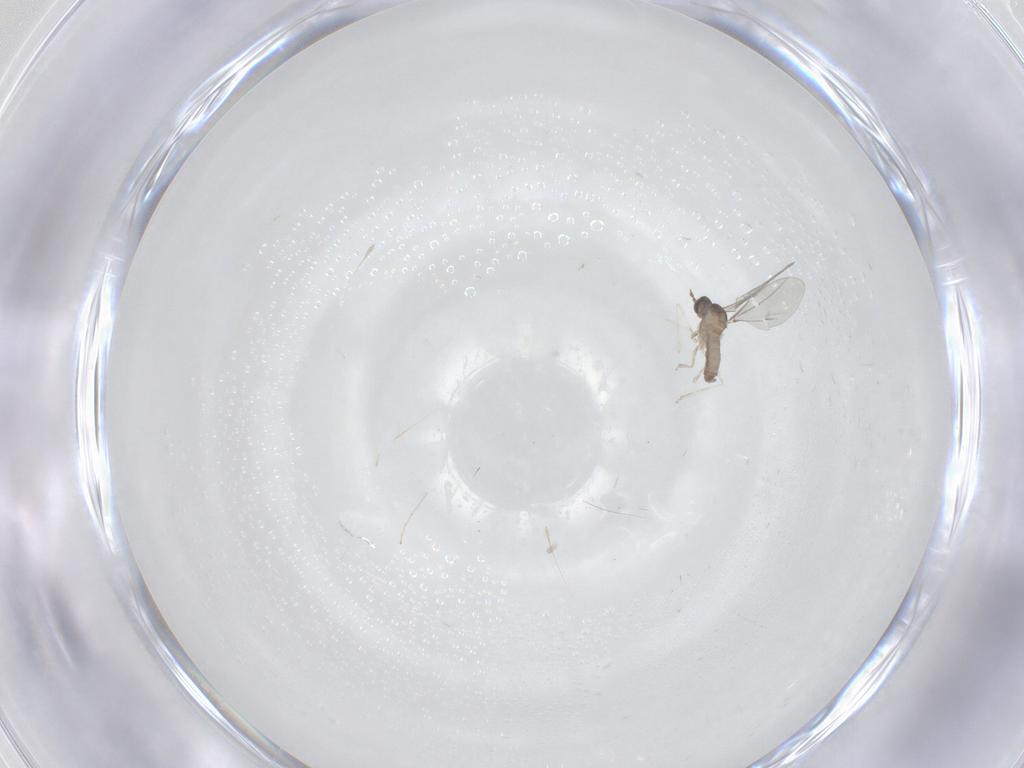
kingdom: Animalia
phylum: Arthropoda
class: Insecta
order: Diptera
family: Cecidomyiidae
